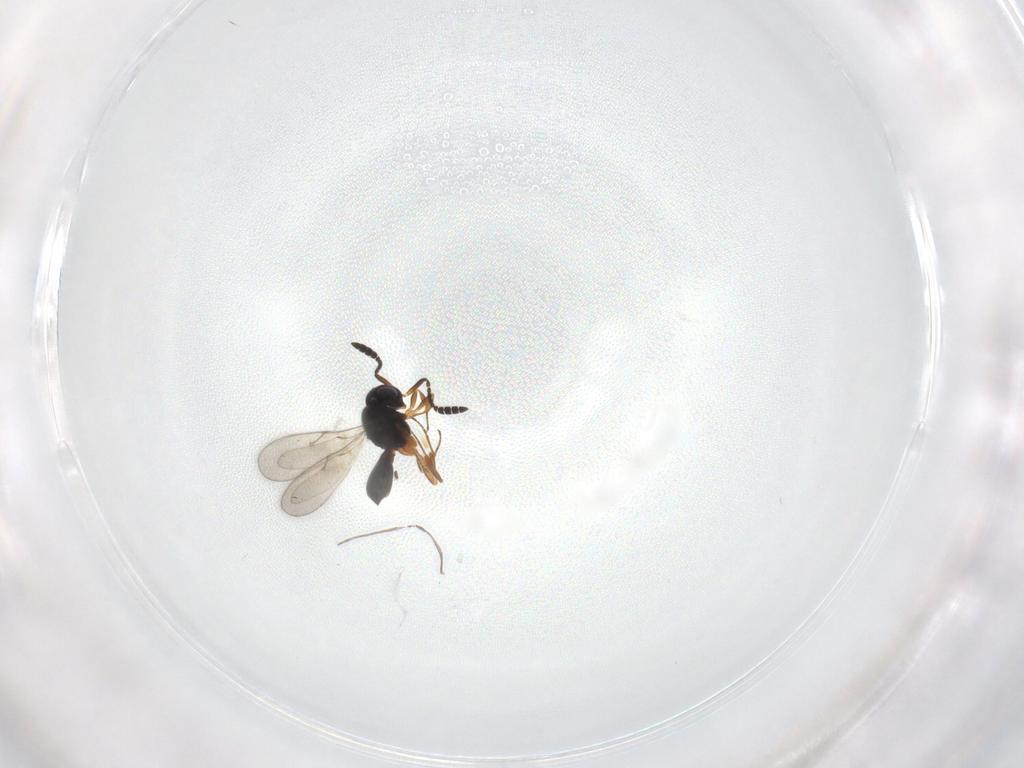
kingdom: Animalia
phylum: Arthropoda
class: Insecta
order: Hymenoptera
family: Scelionidae
